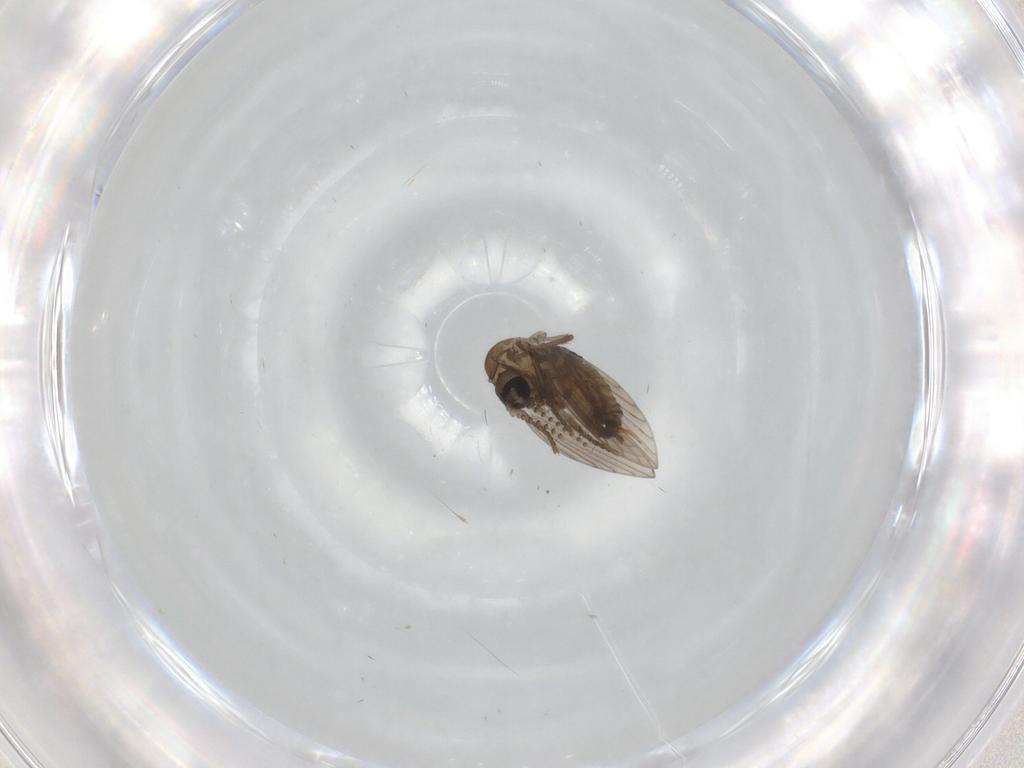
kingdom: Animalia
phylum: Arthropoda
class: Insecta
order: Diptera
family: Psychodidae
